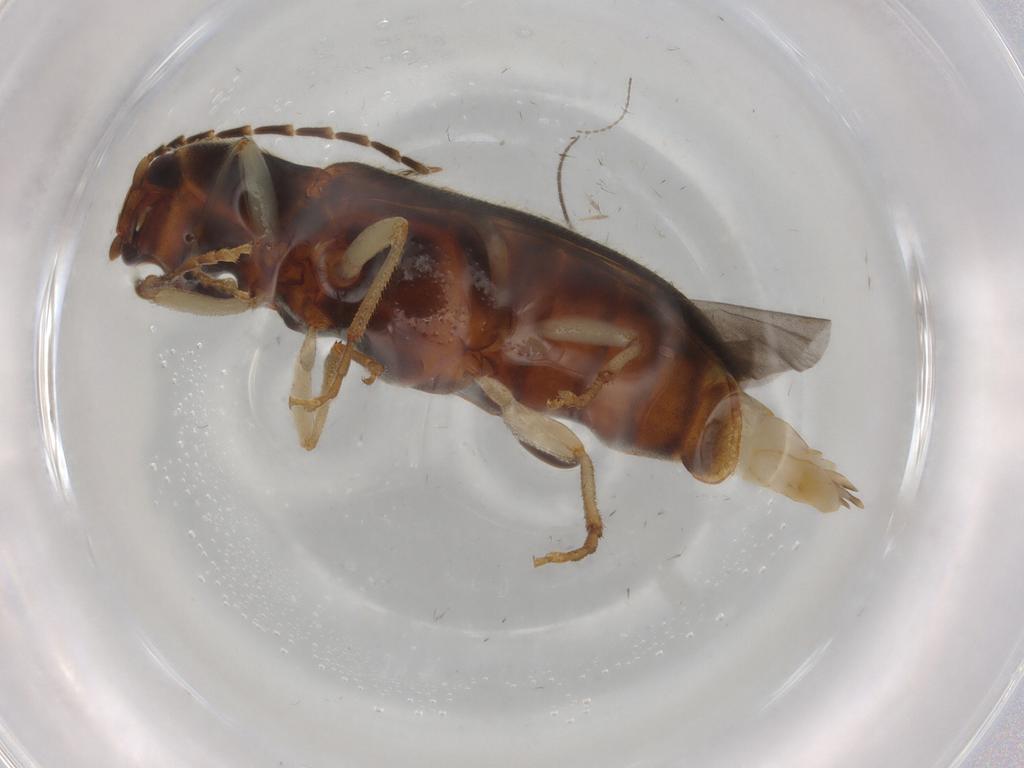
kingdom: Animalia
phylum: Arthropoda
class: Insecta
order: Coleoptera
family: Elateridae
